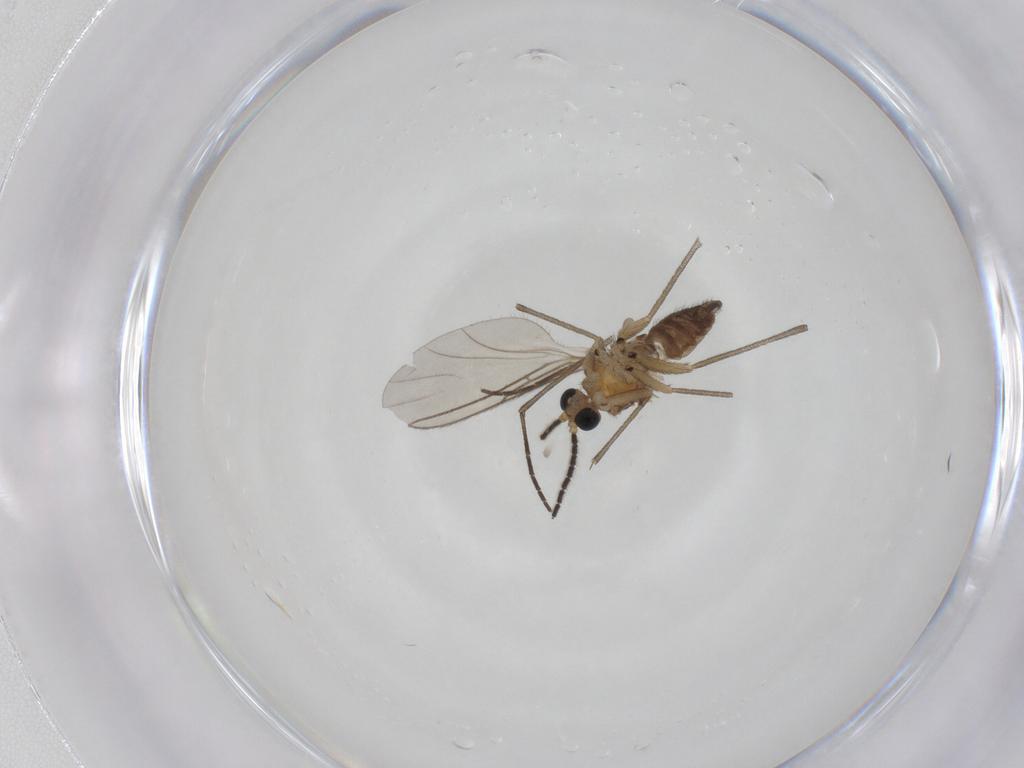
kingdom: Animalia
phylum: Arthropoda
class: Insecta
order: Diptera
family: Sciaridae
